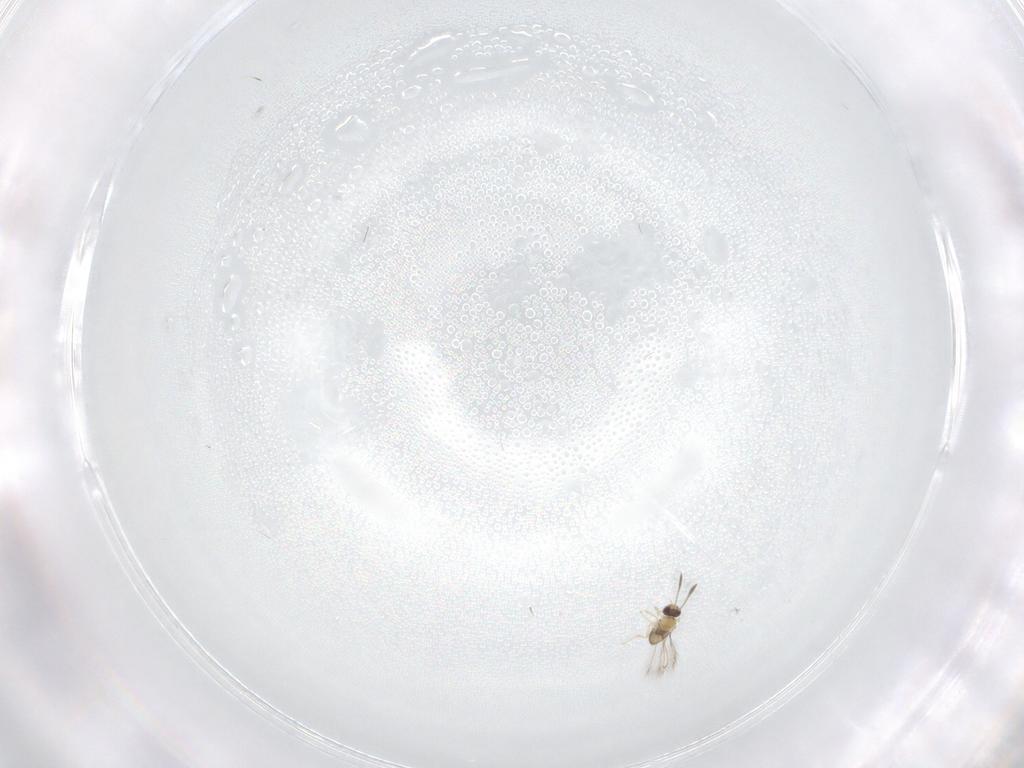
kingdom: Animalia
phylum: Arthropoda
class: Insecta
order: Hymenoptera
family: Mymaridae
